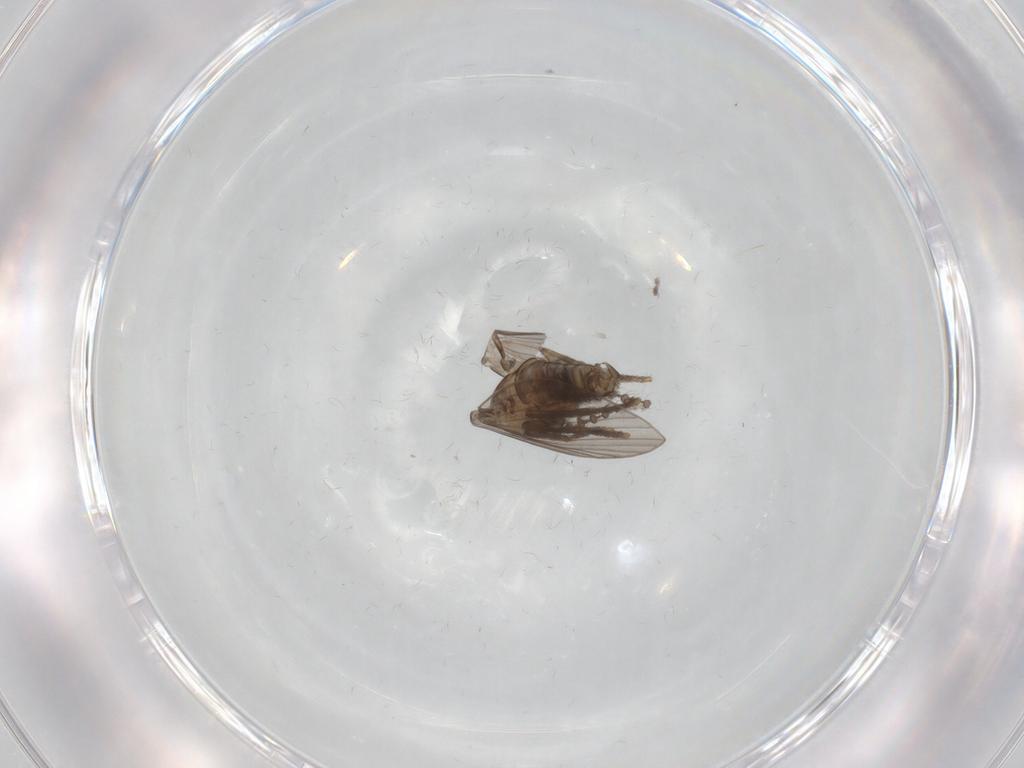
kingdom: Animalia
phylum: Arthropoda
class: Insecta
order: Diptera
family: Psychodidae
